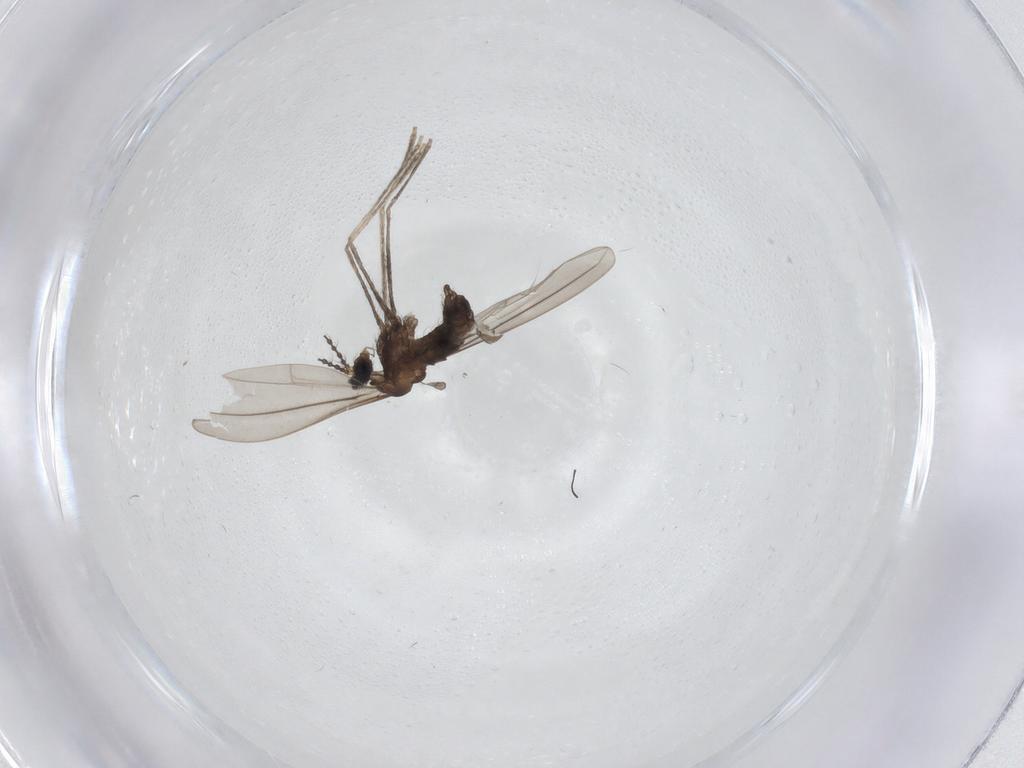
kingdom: Animalia
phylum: Arthropoda
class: Insecta
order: Diptera
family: Cecidomyiidae
